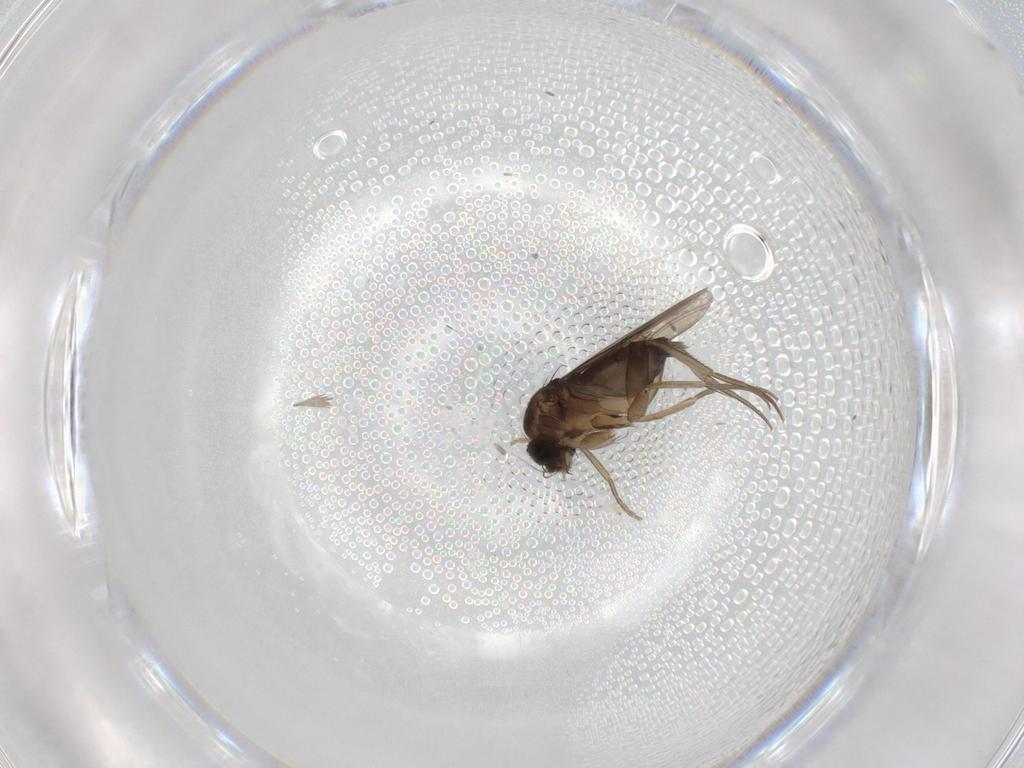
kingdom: Animalia
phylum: Arthropoda
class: Insecta
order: Diptera
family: Phoridae
